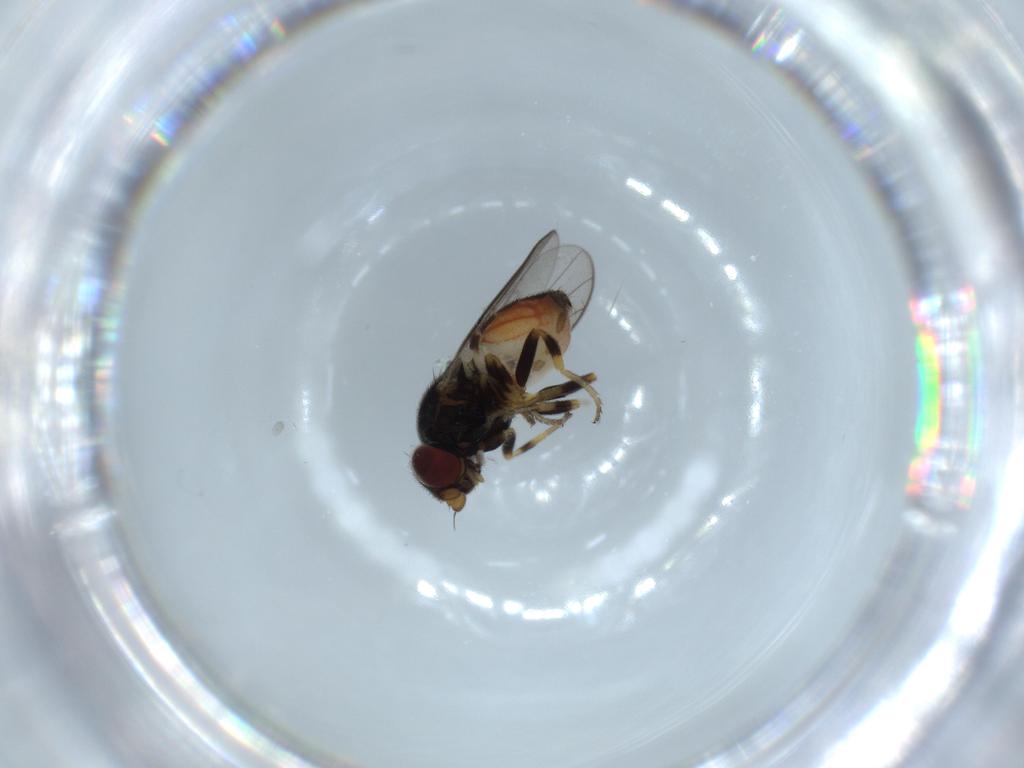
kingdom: Animalia
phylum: Arthropoda
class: Insecta
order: Diptera
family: Chloropidae
